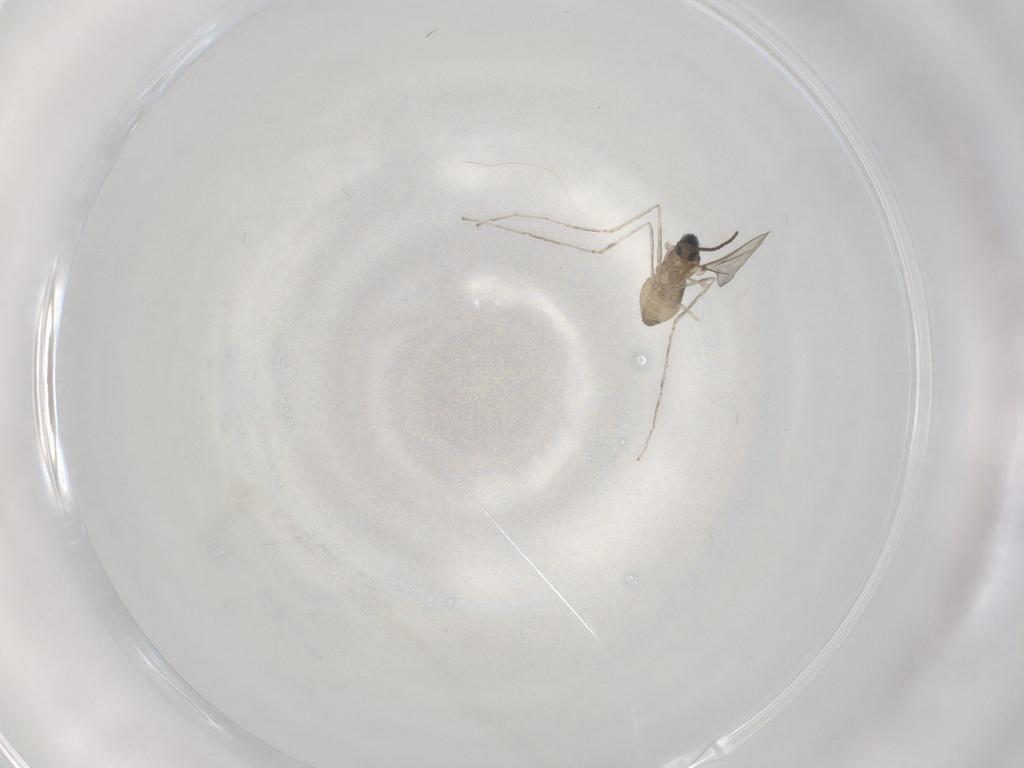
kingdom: Animalia
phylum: Arthropoda
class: Insecta
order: Diptera
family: Cecidomyiidae
